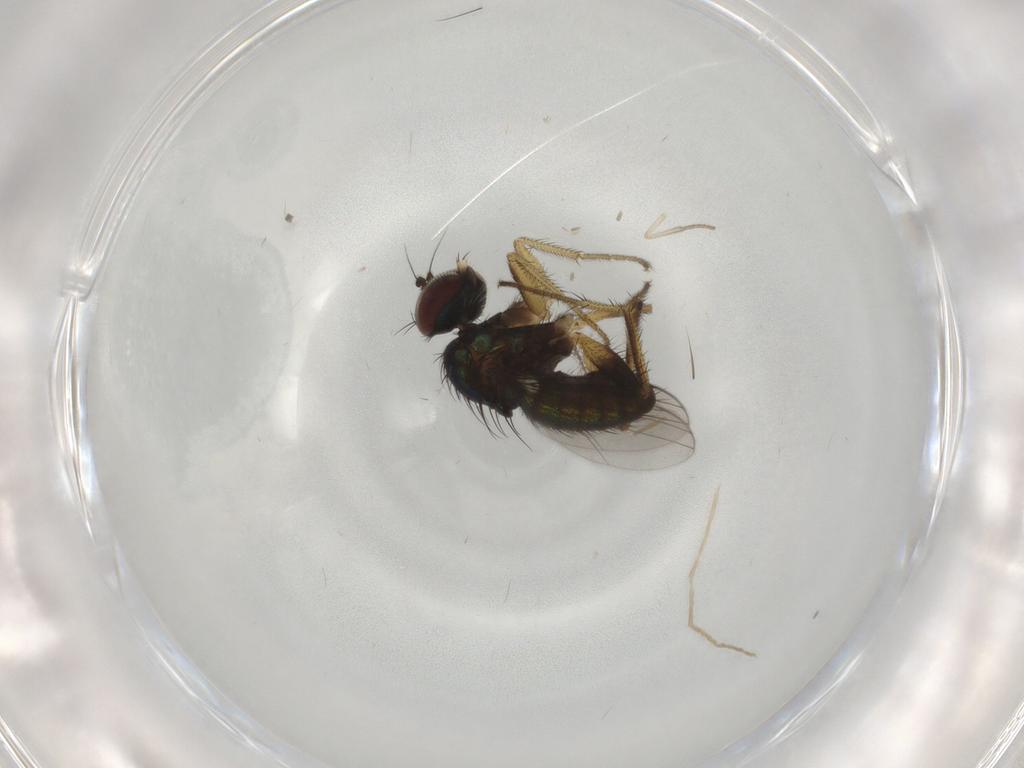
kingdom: Animalia
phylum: Arthropoda
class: Insecta
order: Diptera
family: Chironomidae
